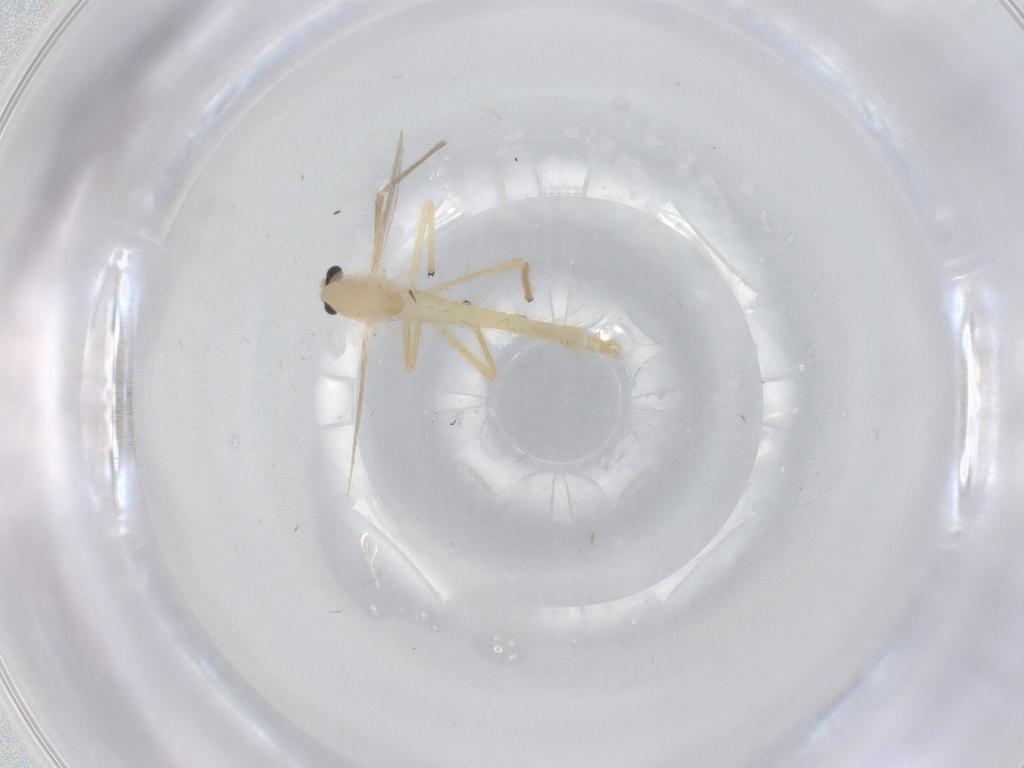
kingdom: Animalia
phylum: Arthropoda
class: Insecta
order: Diptera
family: Chironomidae
